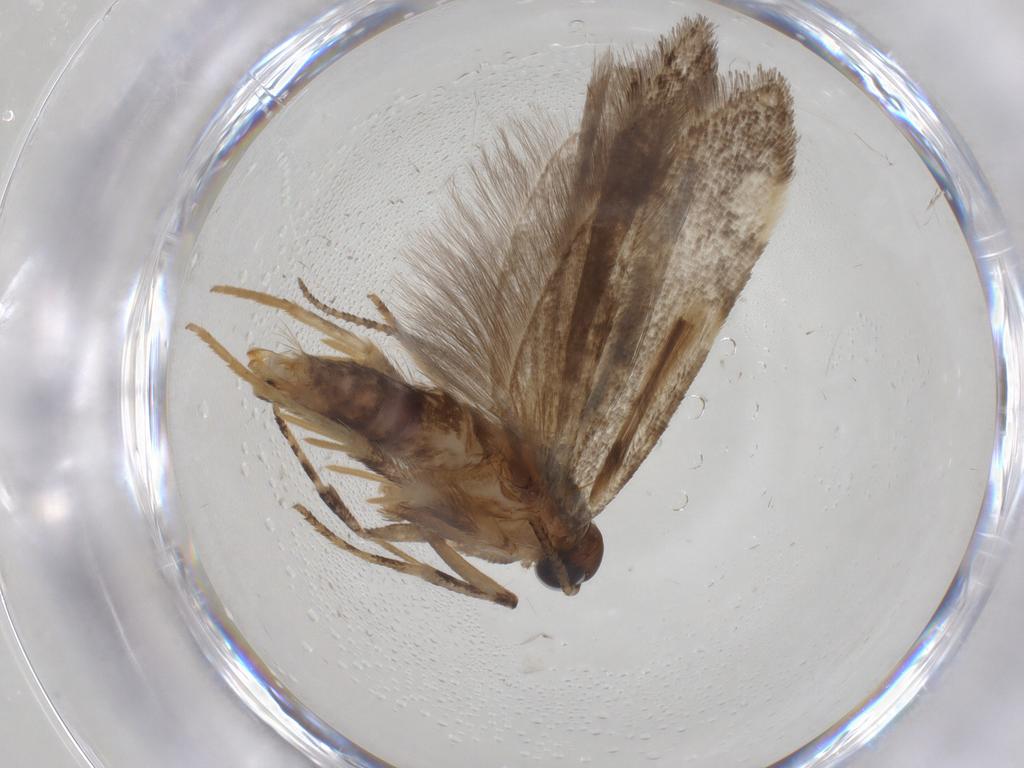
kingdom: Animalia
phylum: Arthropoda
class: Insecta
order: Lepidoptera
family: Gelechiidae
